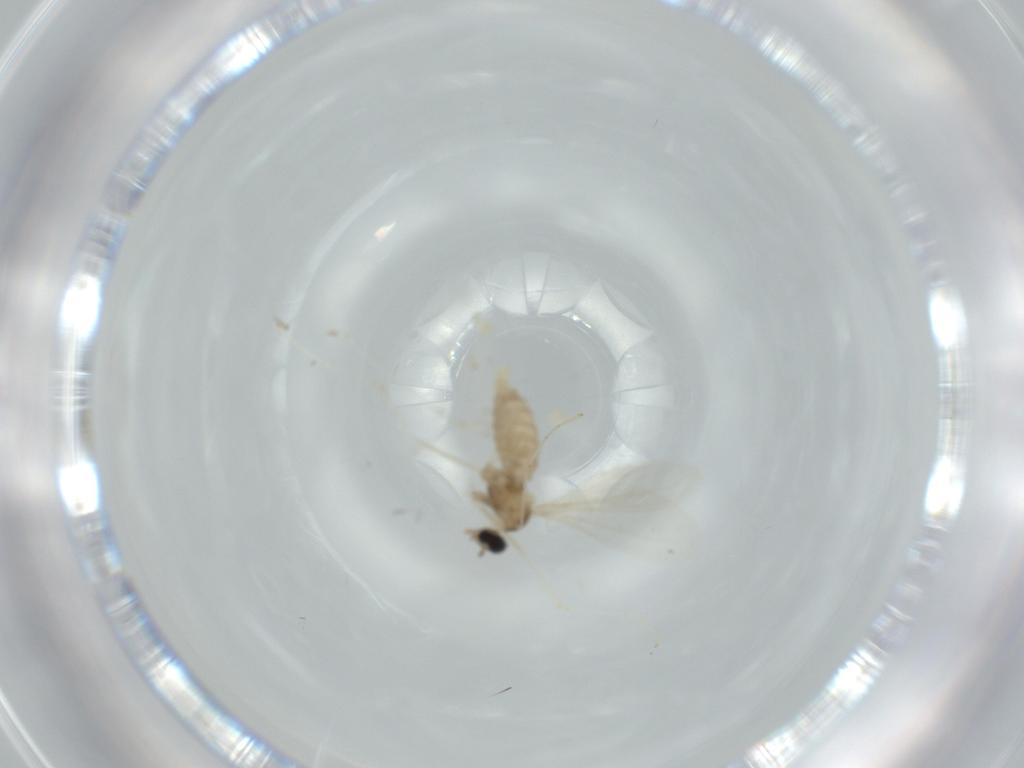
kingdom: Animalia
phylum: Arthropoda
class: Insecta
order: Diptera
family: Cecidomyiidae
